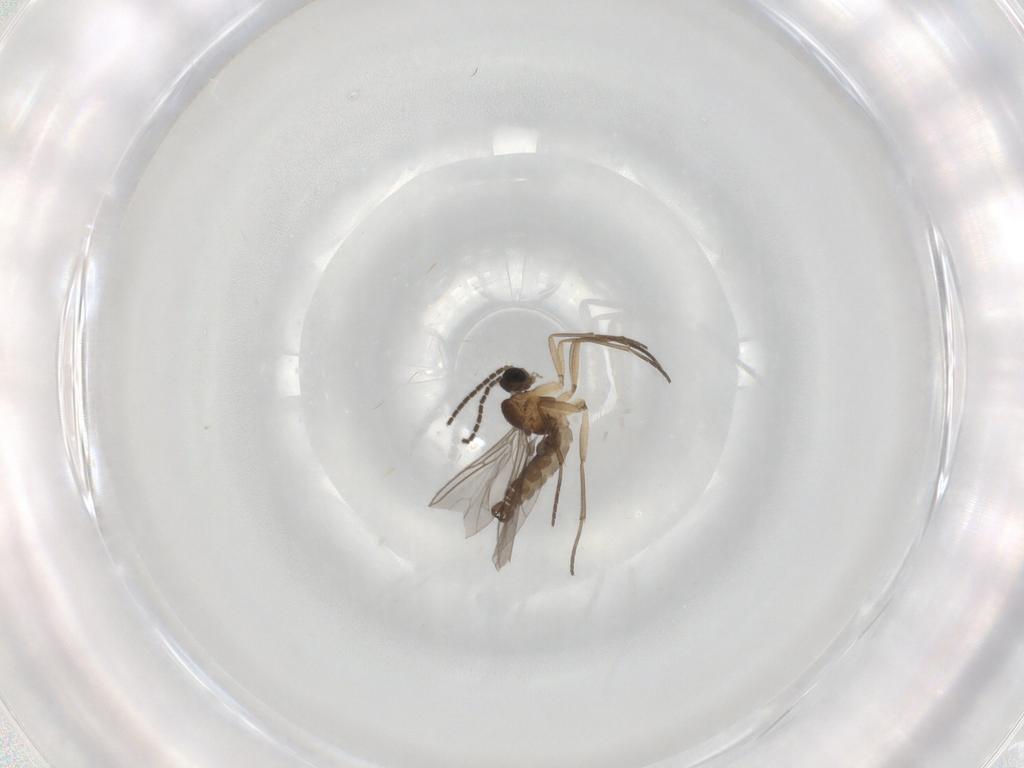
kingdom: Animalia
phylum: Arthropoda
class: Insecta
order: Diptera
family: Sciaridae
